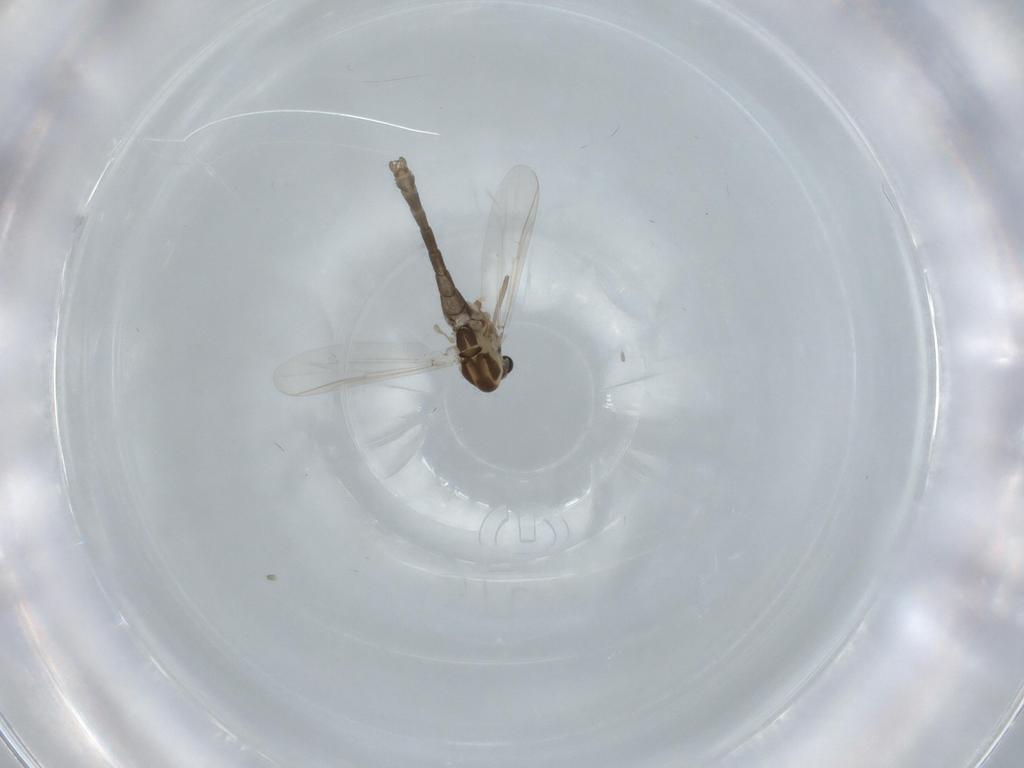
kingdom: Animalia
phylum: Arthropoda
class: Insecta
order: Diptera
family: Chironomidae
